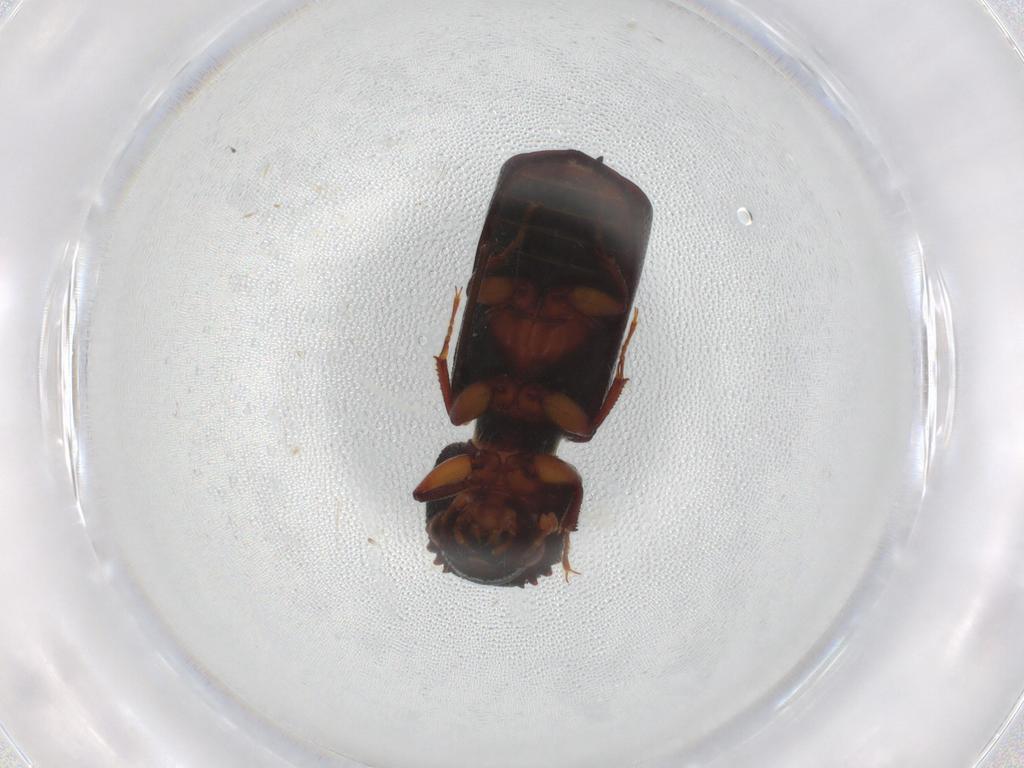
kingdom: Animalia
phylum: Arthropoda
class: Insecta
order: Coleoptera
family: Bostrichidae
